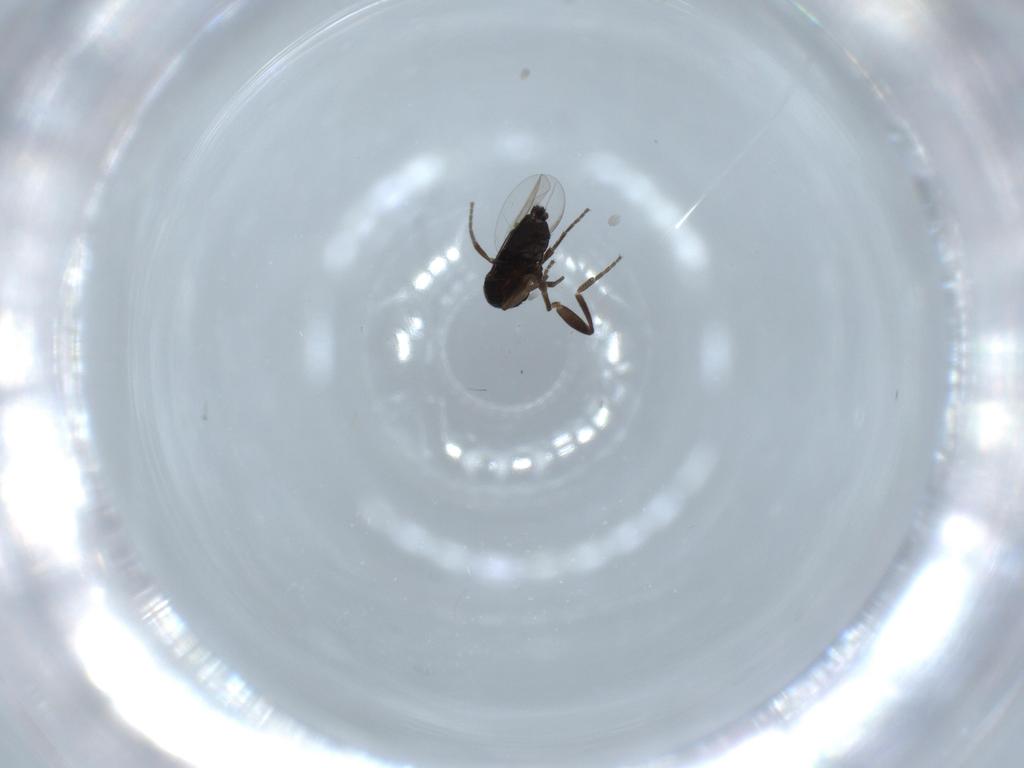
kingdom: Animalia
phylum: Arthropoda
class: Insecta
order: Diptera
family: Phoridae
